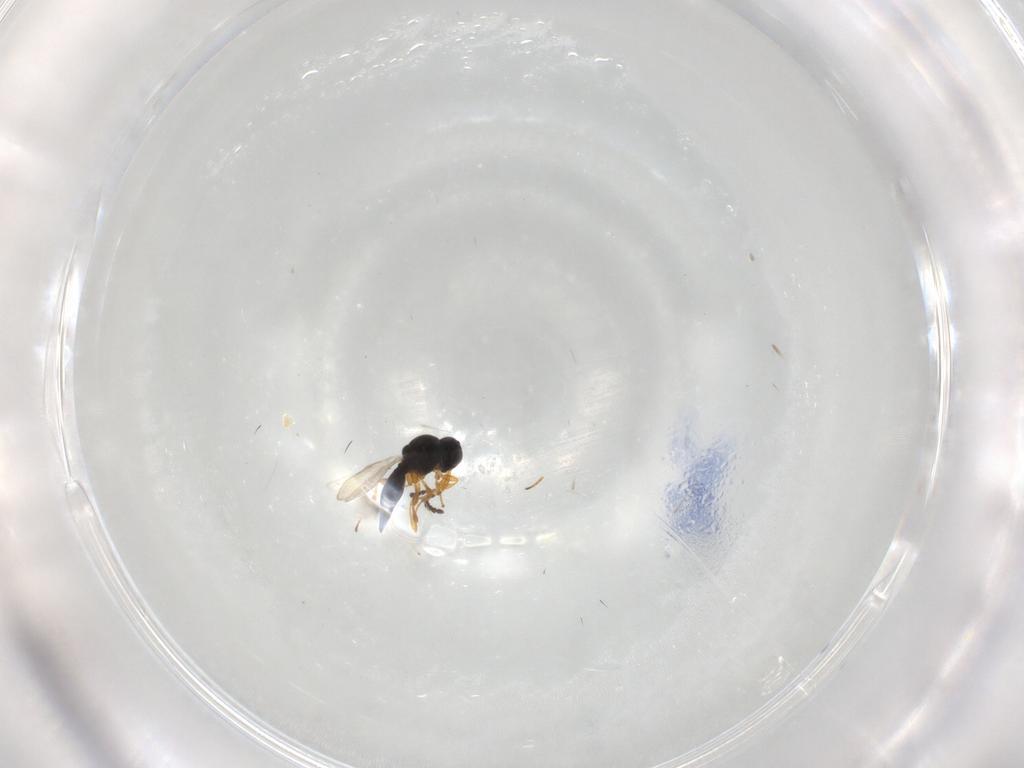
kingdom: Animalia
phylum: Arthropoda
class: Insecta
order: Hymenoptera
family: Platygastridae
